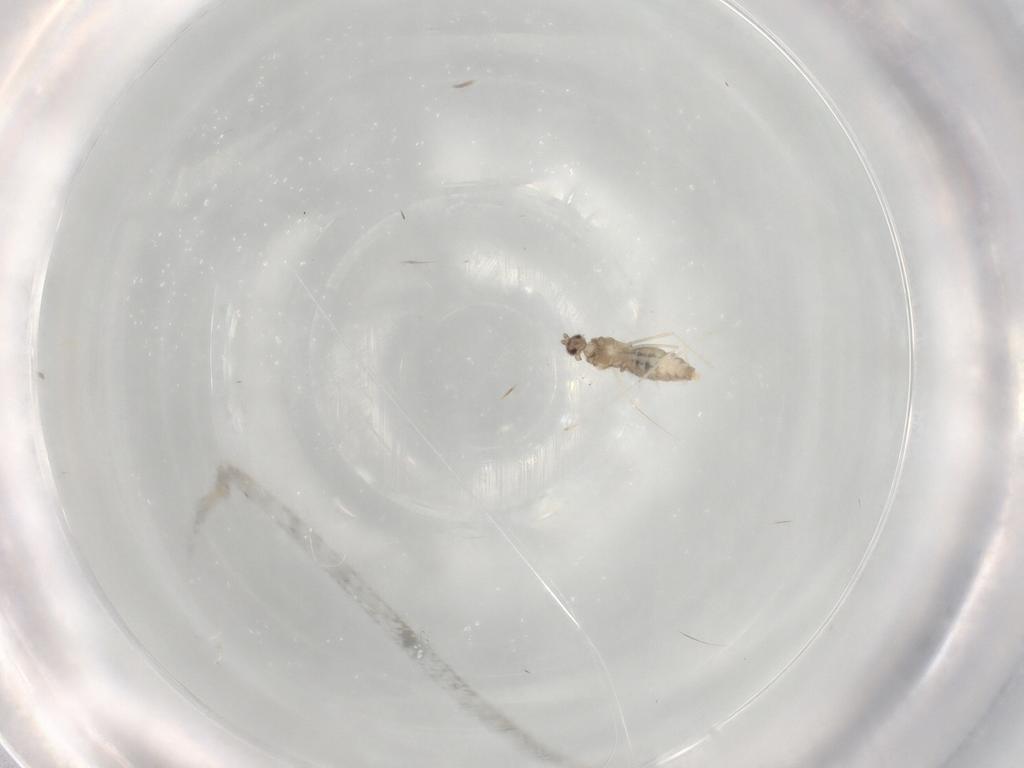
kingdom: Animalia
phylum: Arthropoda
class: Insecta
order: Diptera
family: Cecidomyiidae
